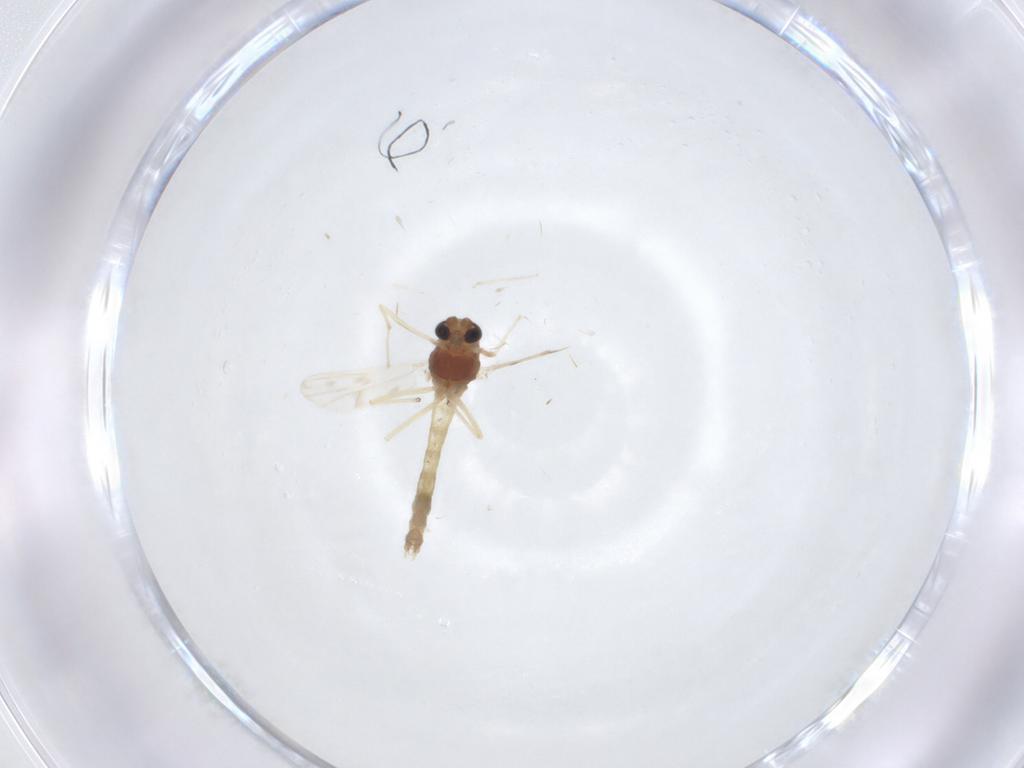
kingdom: Animalia
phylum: Arthropoda
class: Insecta
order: Diptera
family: Cecidomyiidae
